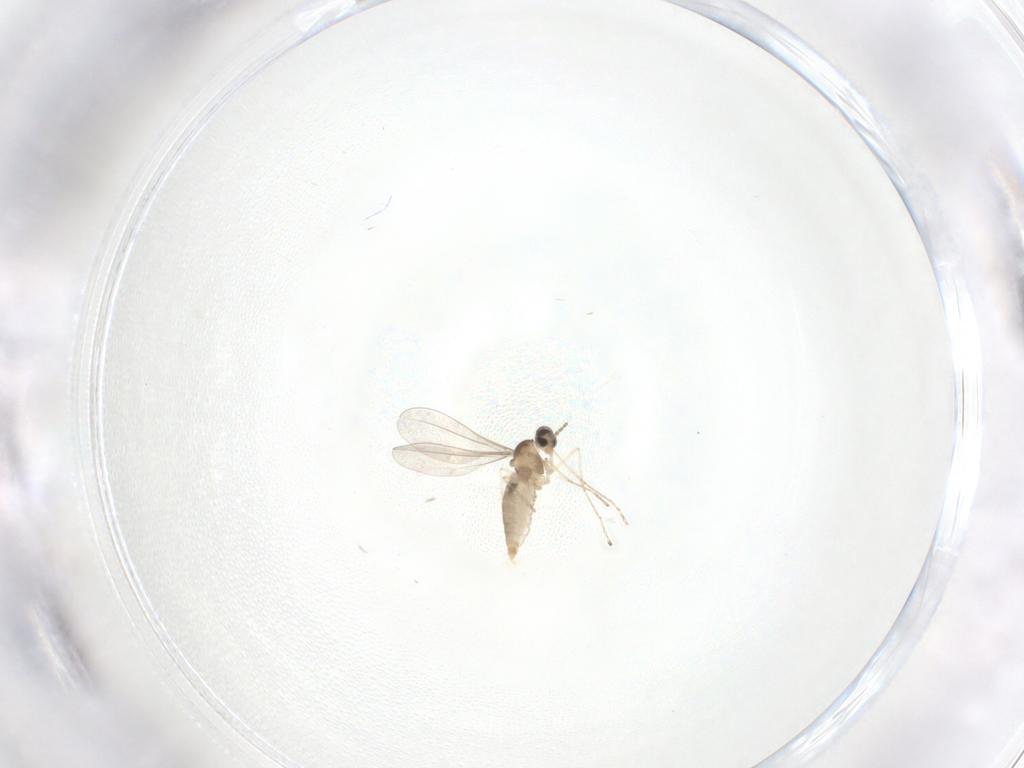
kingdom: Animalia
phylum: Arthropoda
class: Insecta
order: Diptera
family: Cecidomyiidae
